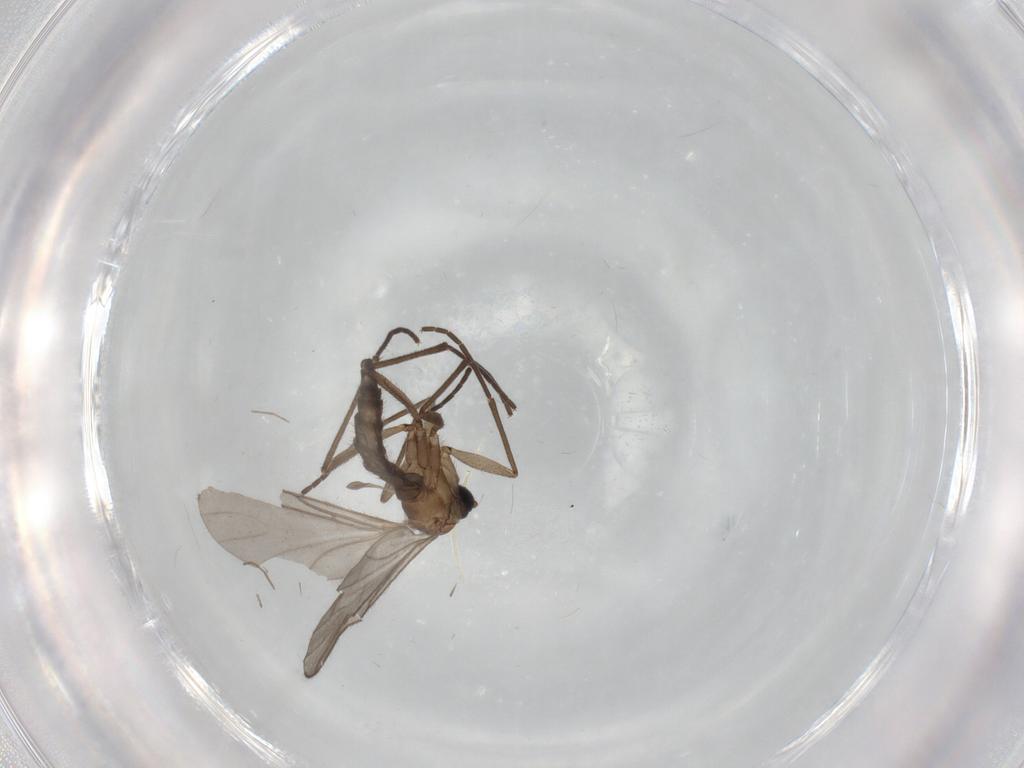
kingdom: Animalia
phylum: Arthropoda
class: Insecta
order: Diptera
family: Sciaridae
